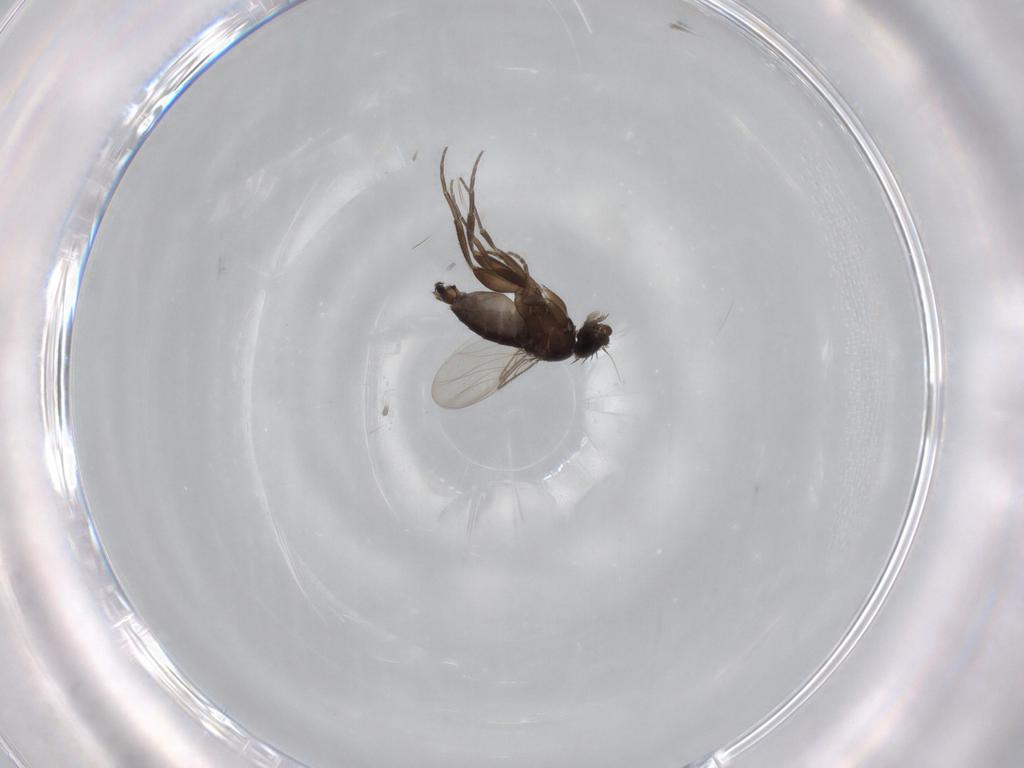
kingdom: Animalia
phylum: Arthropoda
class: Insecta
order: Diptera
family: Phoridae
